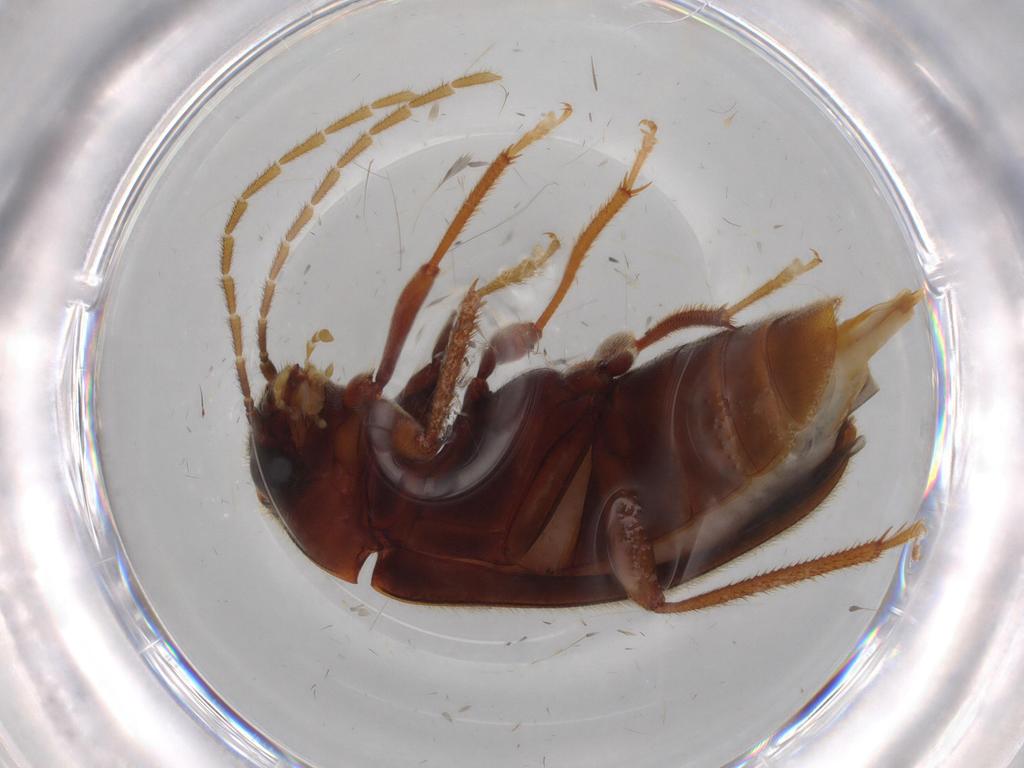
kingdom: Animalia
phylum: Arthropoda
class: Insecta
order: Coleoptera
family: Ptilodactylidae
